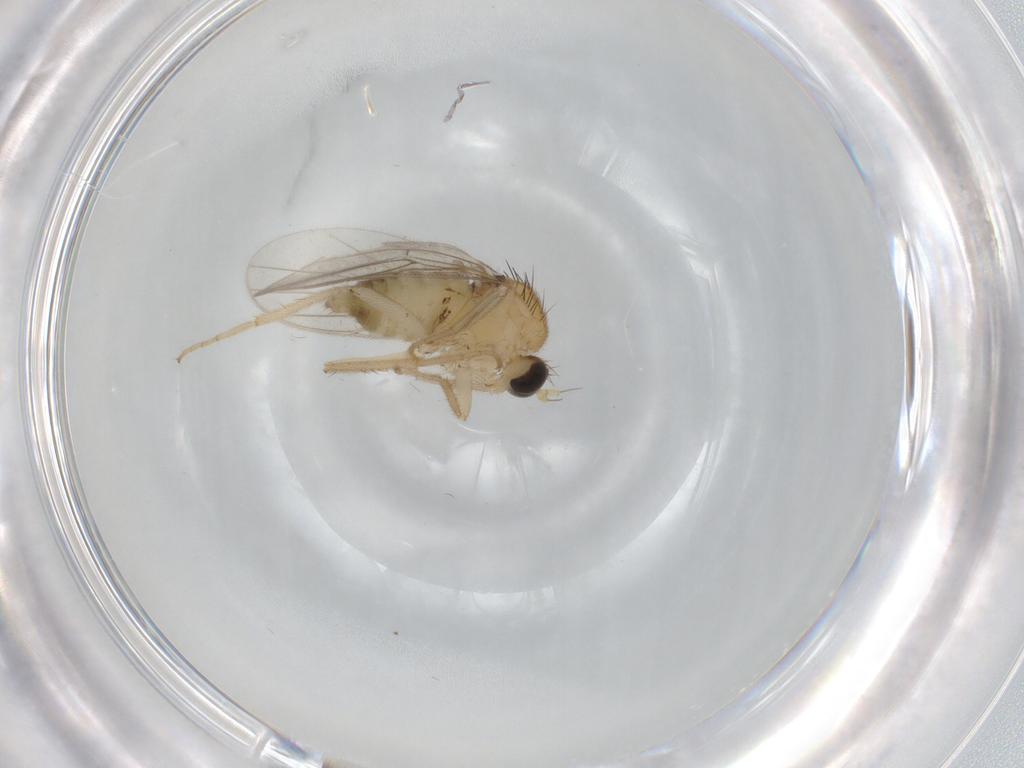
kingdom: Animalia
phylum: Arthropoda
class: Insecta
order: Diptera
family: Hybotidae
